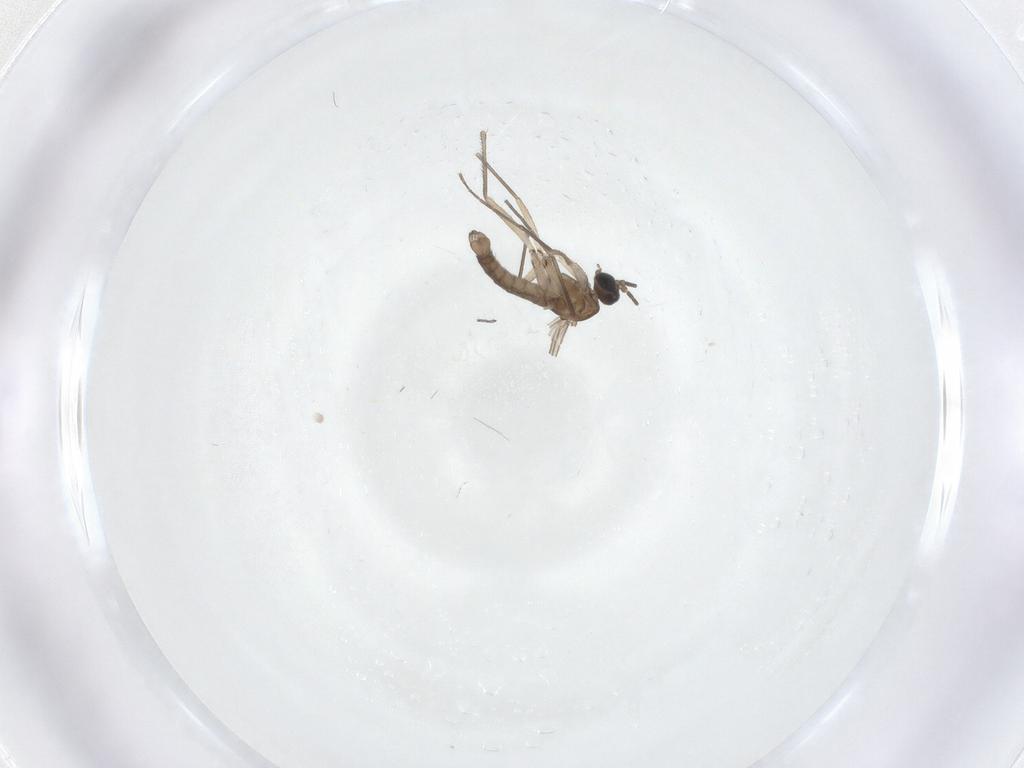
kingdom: Animalia
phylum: Arthropoda
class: Insecta
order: Diptera
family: Sciaridae
